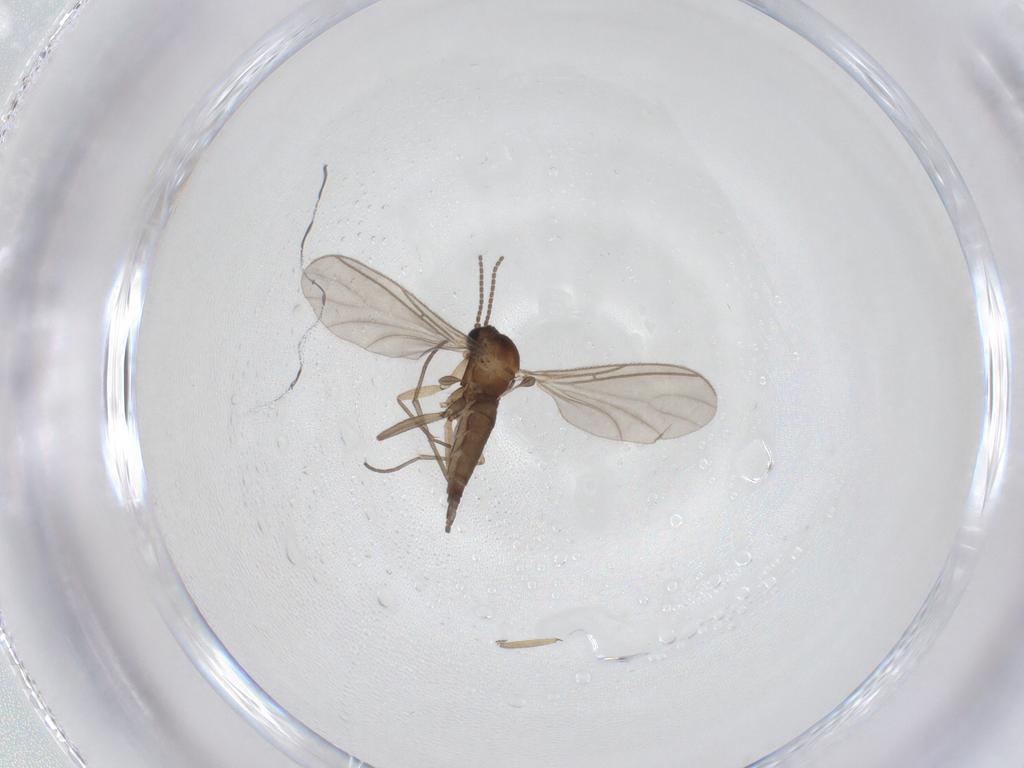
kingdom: Animalia
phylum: Arthropoda
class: Insecta
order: Diptera
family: Sciaridae
